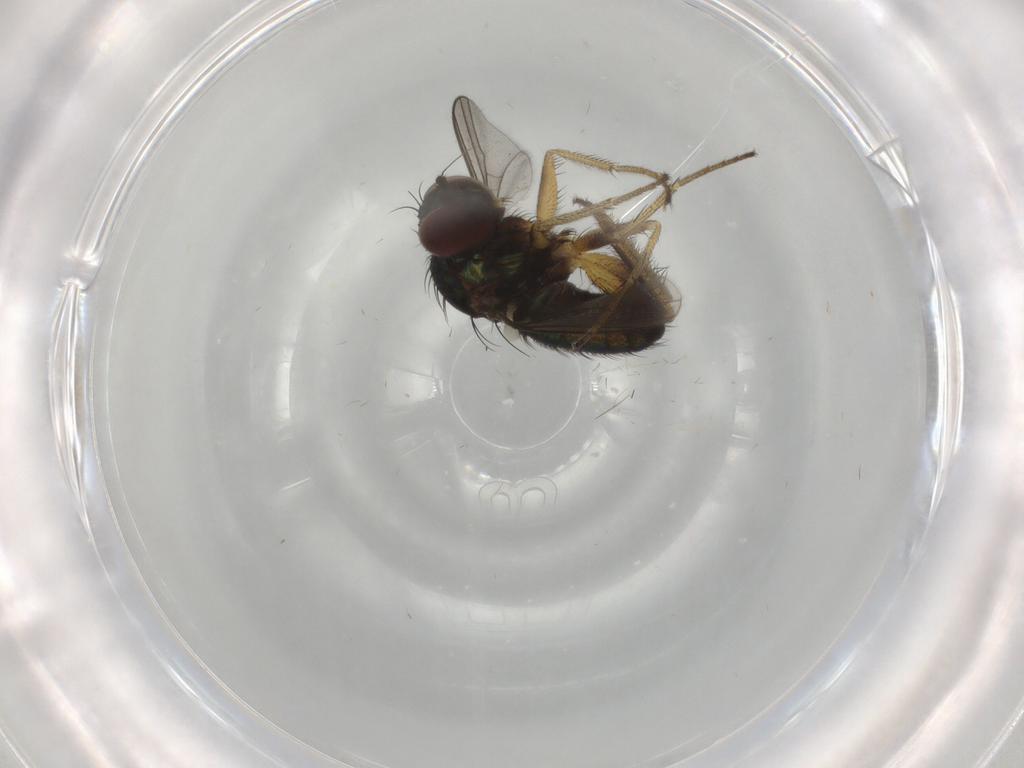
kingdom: Animalia
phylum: Arthropoda
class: Insecta
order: Diptera
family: Dolichopodidae
